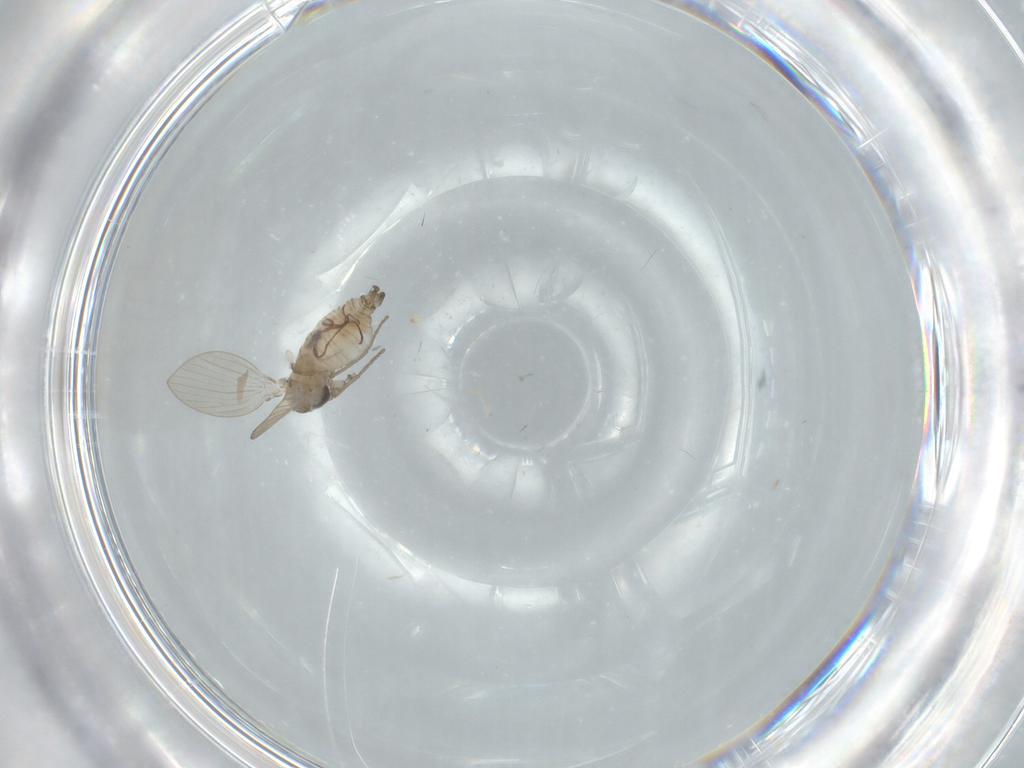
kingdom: Animalia
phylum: Arthropoda
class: Insecta
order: Diptera
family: Psychodidae
